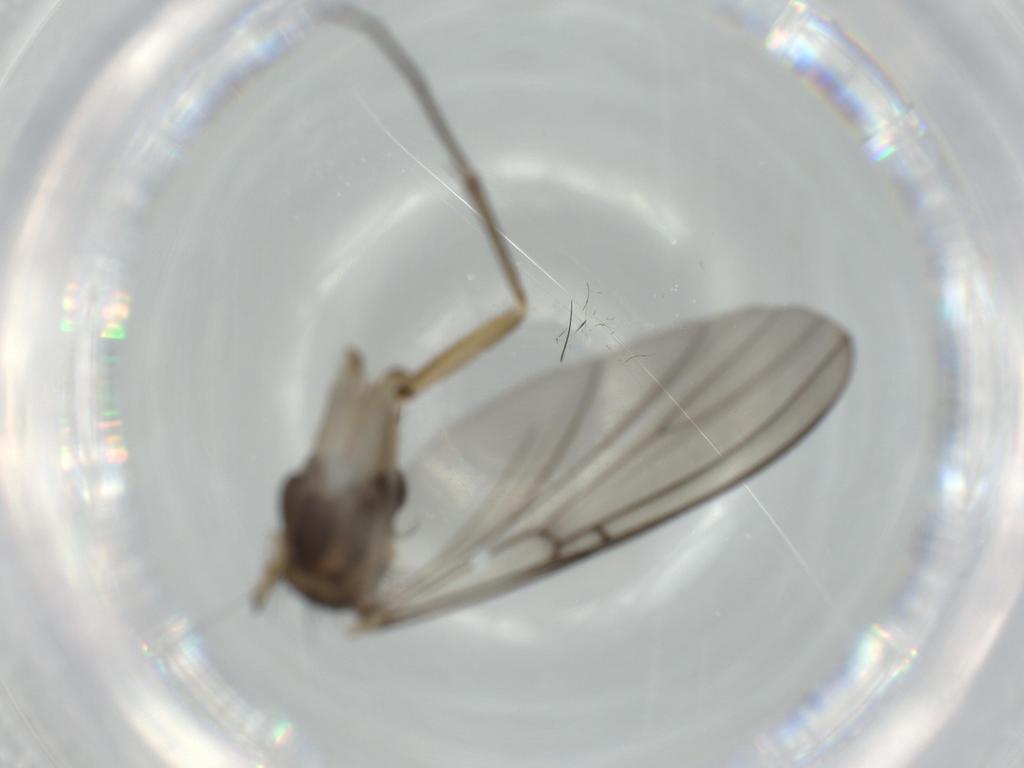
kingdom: Animalia
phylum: Arthropoda
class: Insecta
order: Diptera
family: Mycetophilidae
